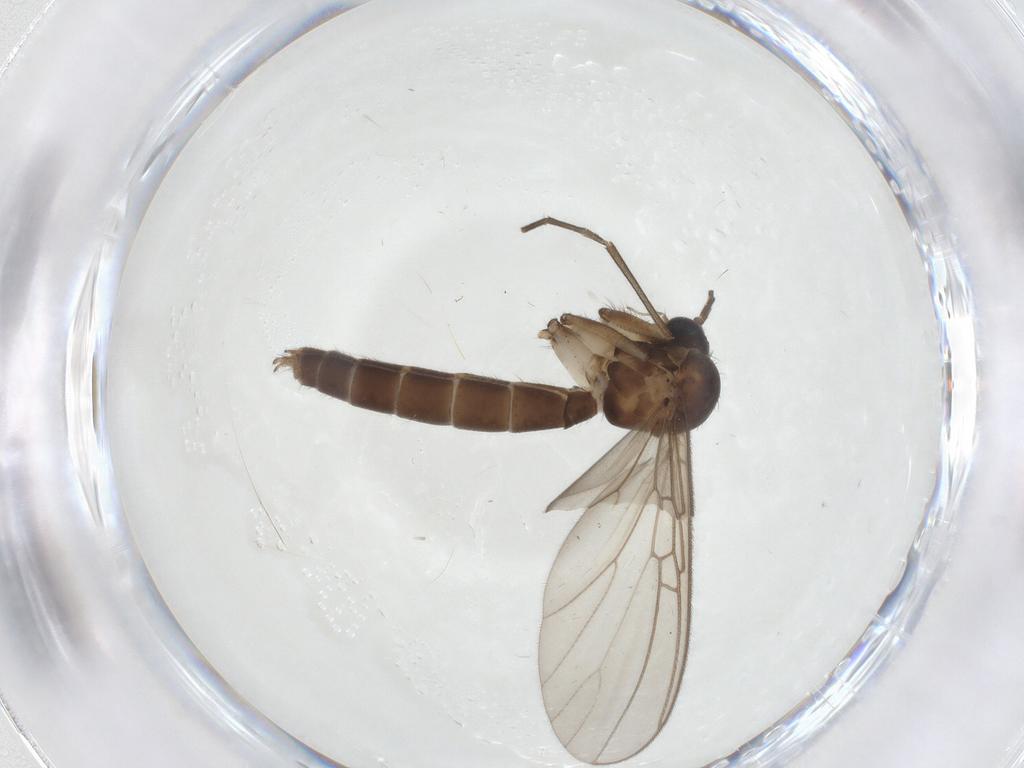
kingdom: Animalia
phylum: Arthropoda
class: Insecta
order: Diptera
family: Mycetophilidae
